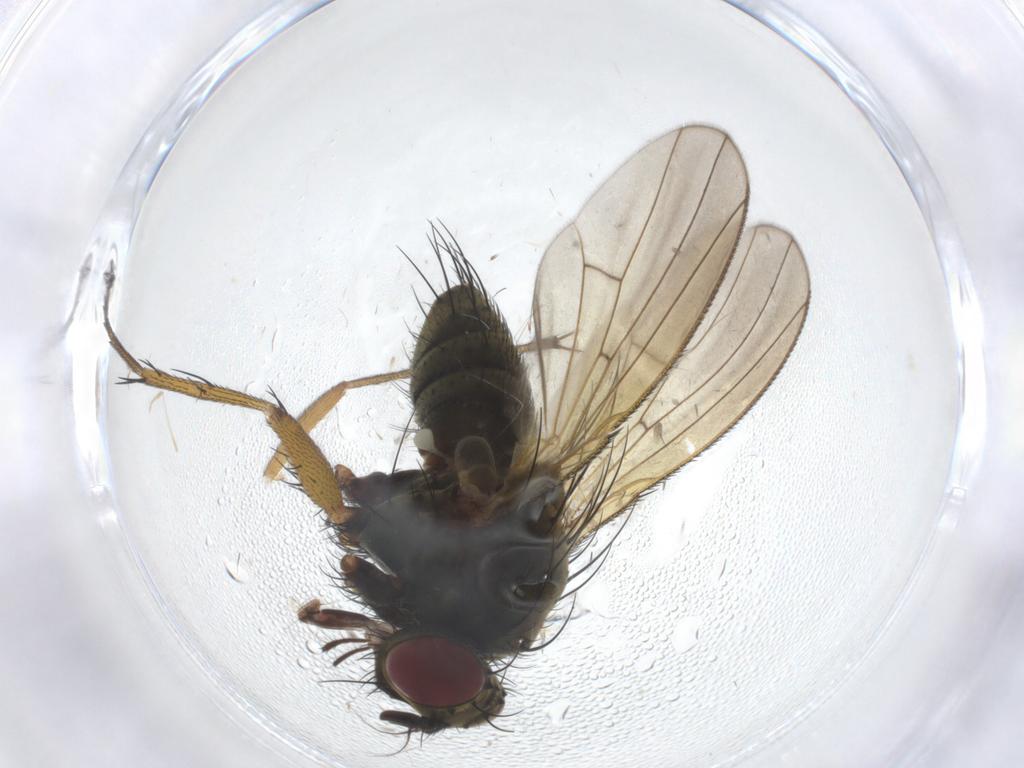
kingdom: Animalia
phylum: Arthropoda
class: Insecta
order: Diptera
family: Muscidae
